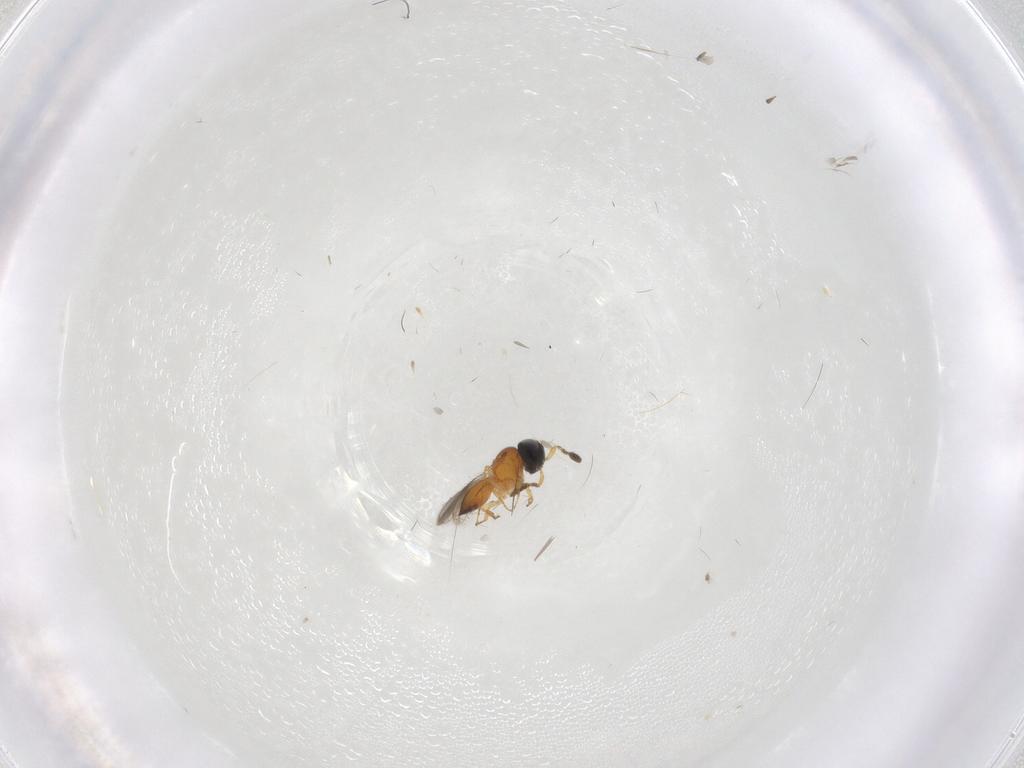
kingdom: Animalia
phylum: Arthropoda
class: Insecta
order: Hymenoptera
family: Scelionidae
